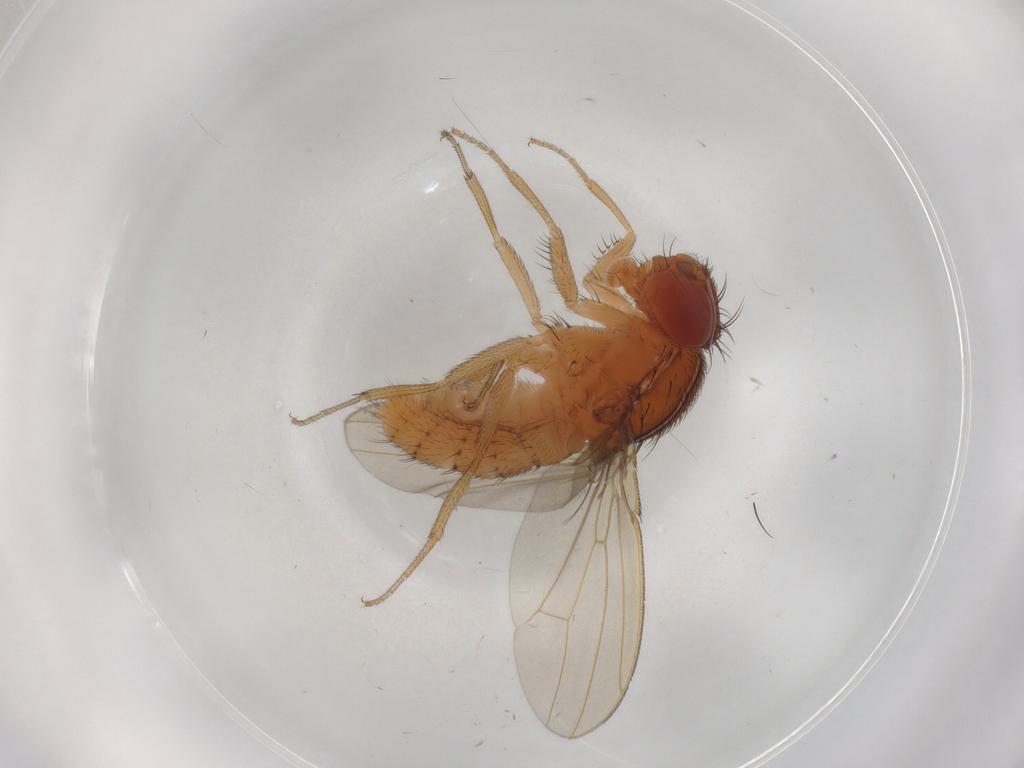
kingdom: Animalia
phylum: Arthropoda
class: Insecta
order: Diptera
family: Drosophilidae
